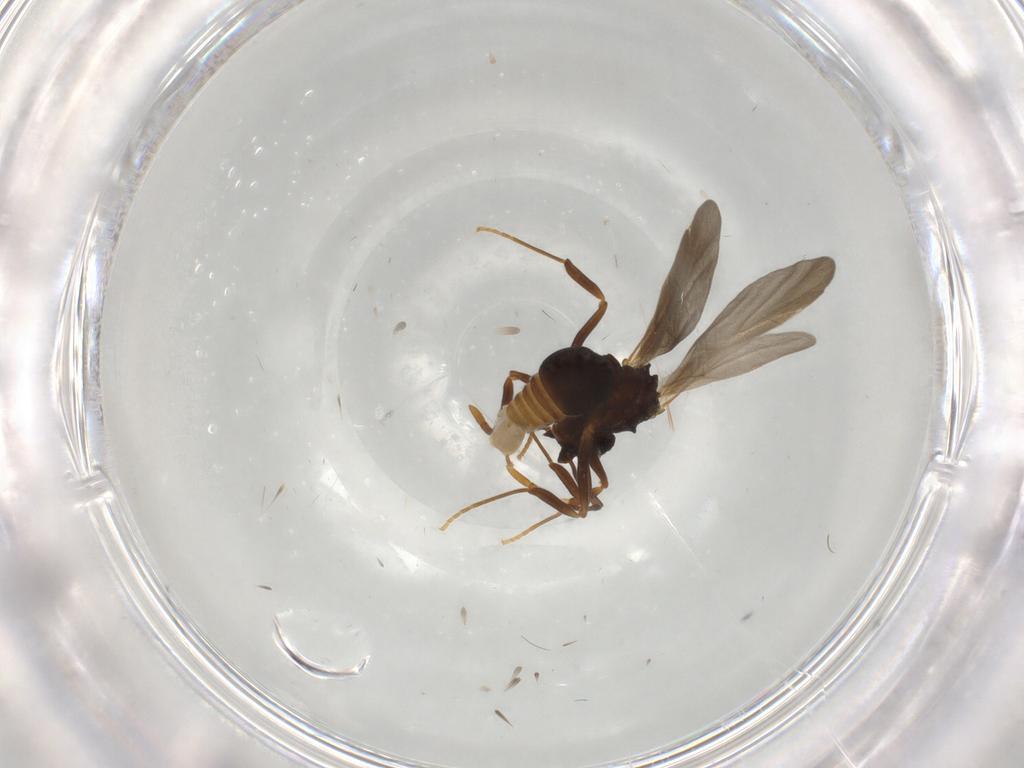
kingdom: Animalia
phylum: Arthropoda
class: Insecta
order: Hymenoptera
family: Formicidae
